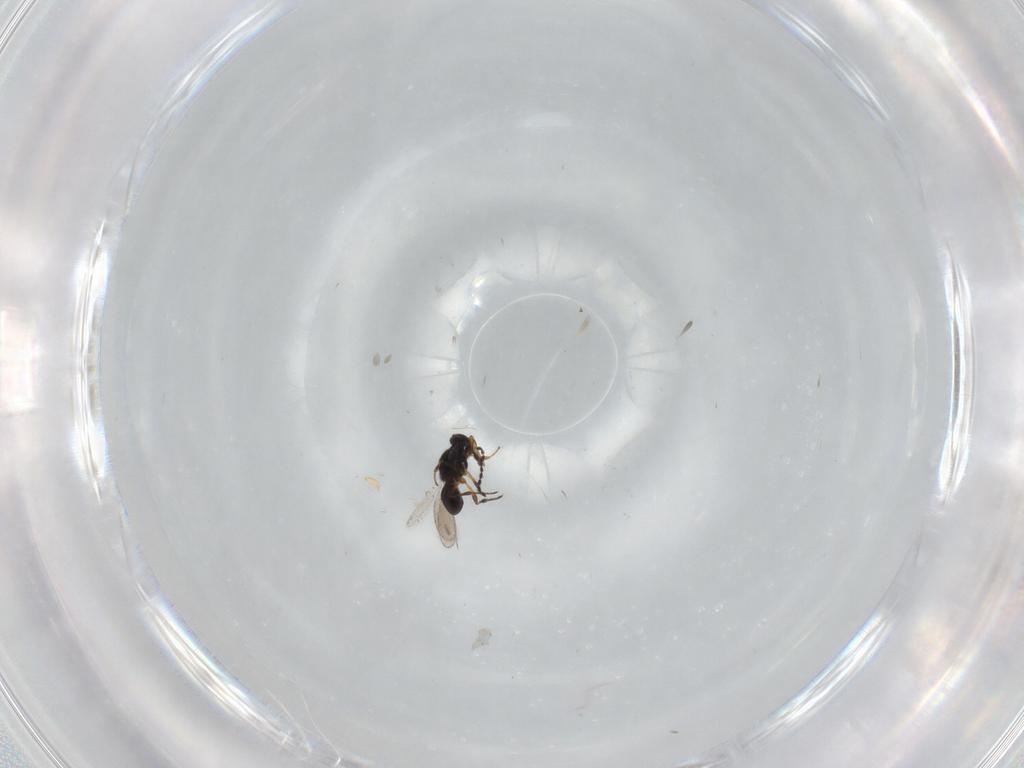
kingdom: Animalia
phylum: Arthropoda
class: Insecta
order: Hymenoptera
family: Platygastridae
